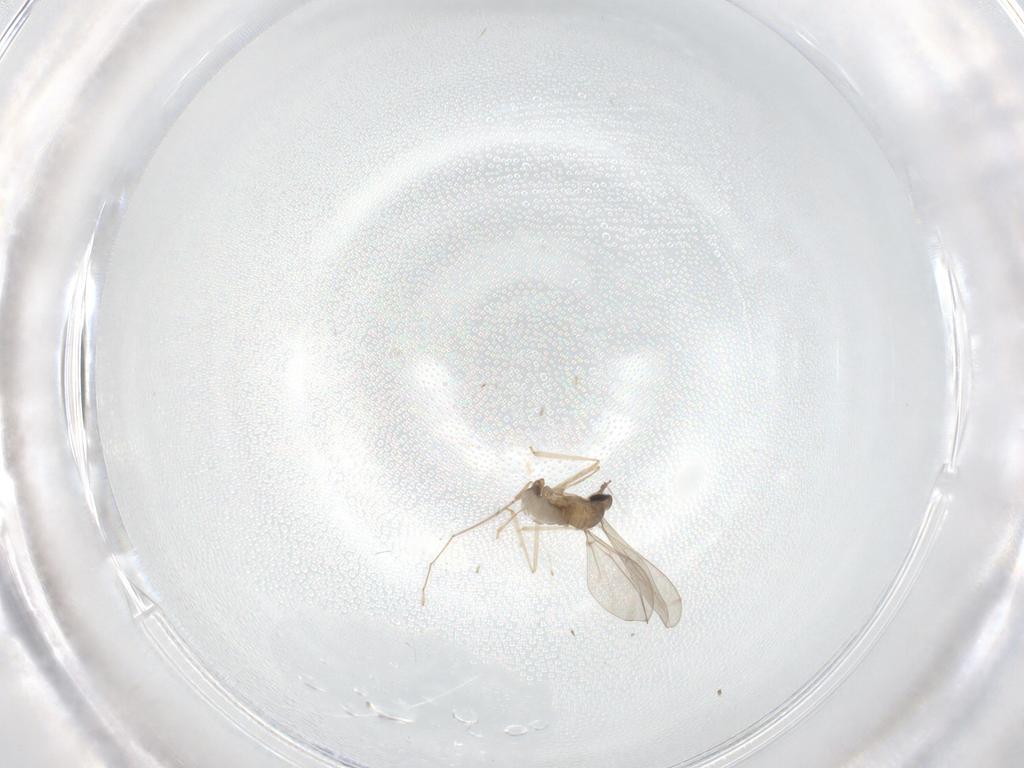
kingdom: Animalia
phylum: Arthropoda
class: Insecta
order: Diptera
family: Cecidomyiidae
